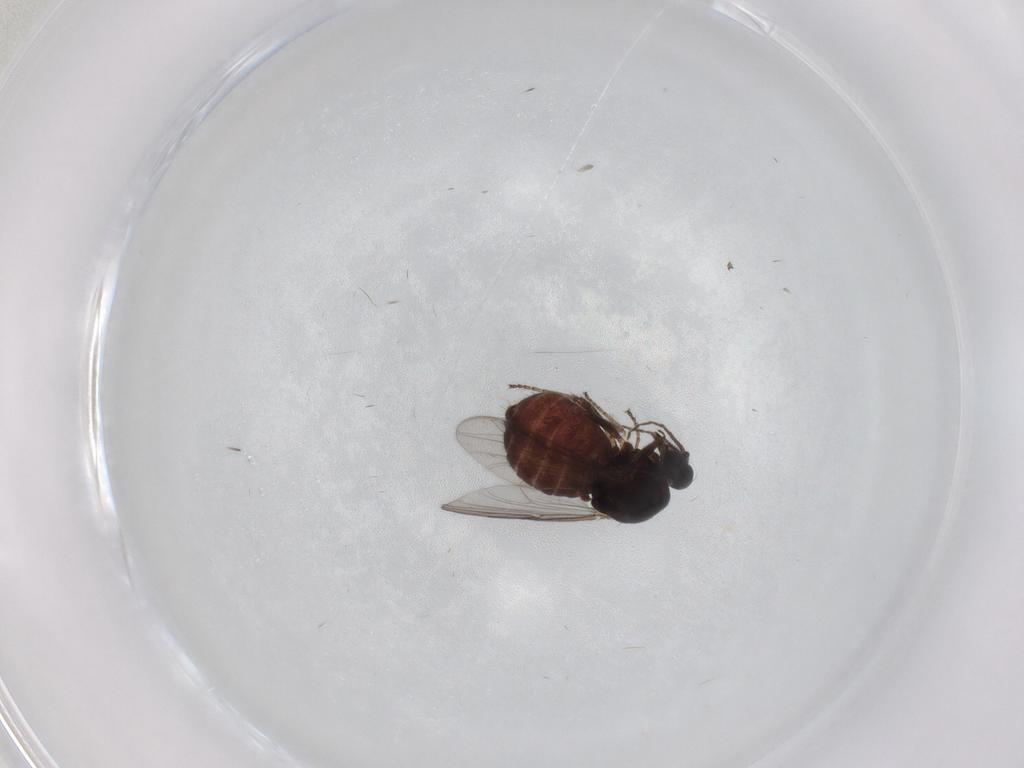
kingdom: Animalia
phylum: Arthropoda
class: Insecta
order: Diptera
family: Ceratopogonidae
